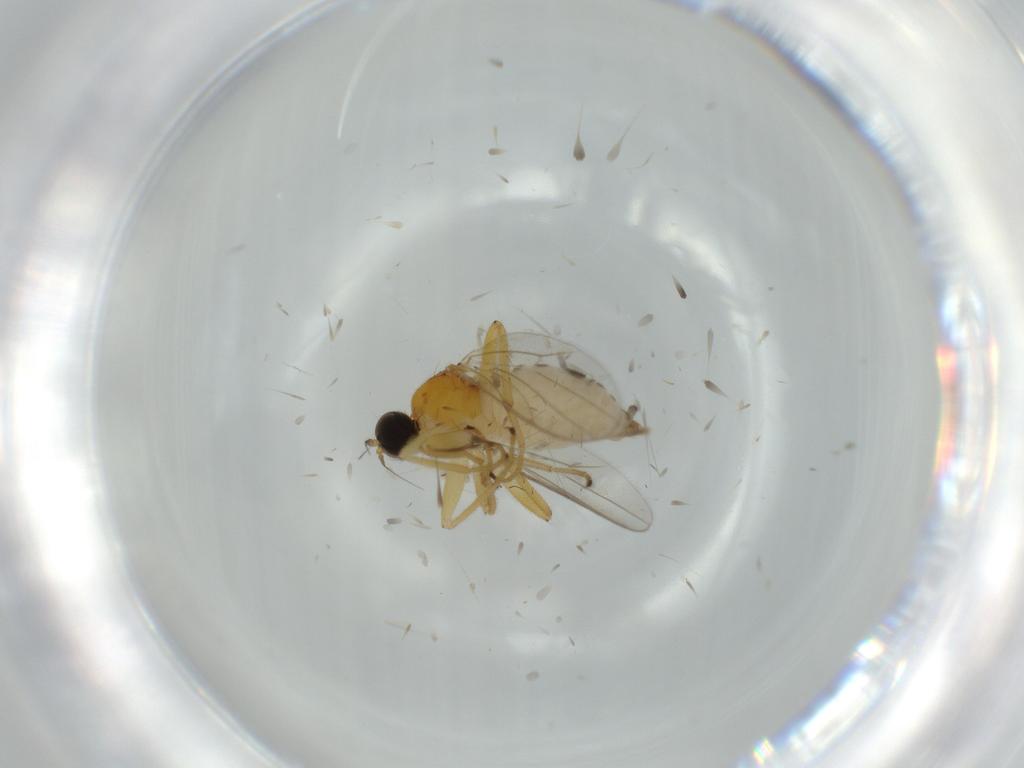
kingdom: Animalia
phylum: Arthropoda
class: Insecta
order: Diptera
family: Hybotidae
